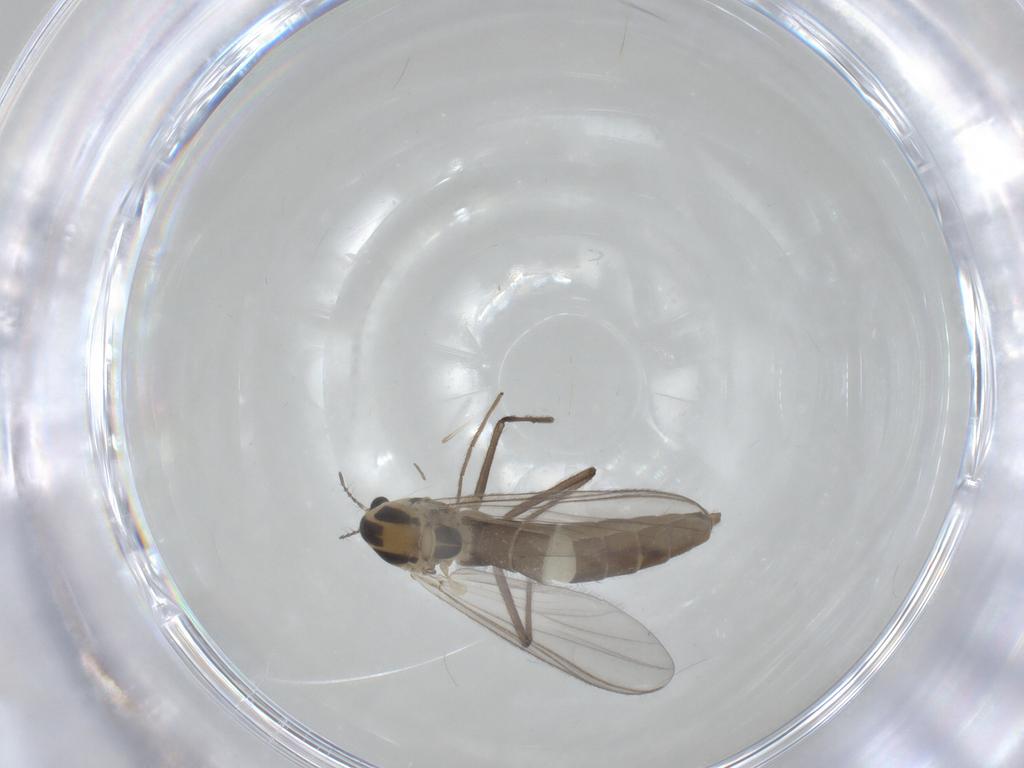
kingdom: Animalia
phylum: Arthropoda
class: Insecta
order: Diptera
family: Chironomidae
